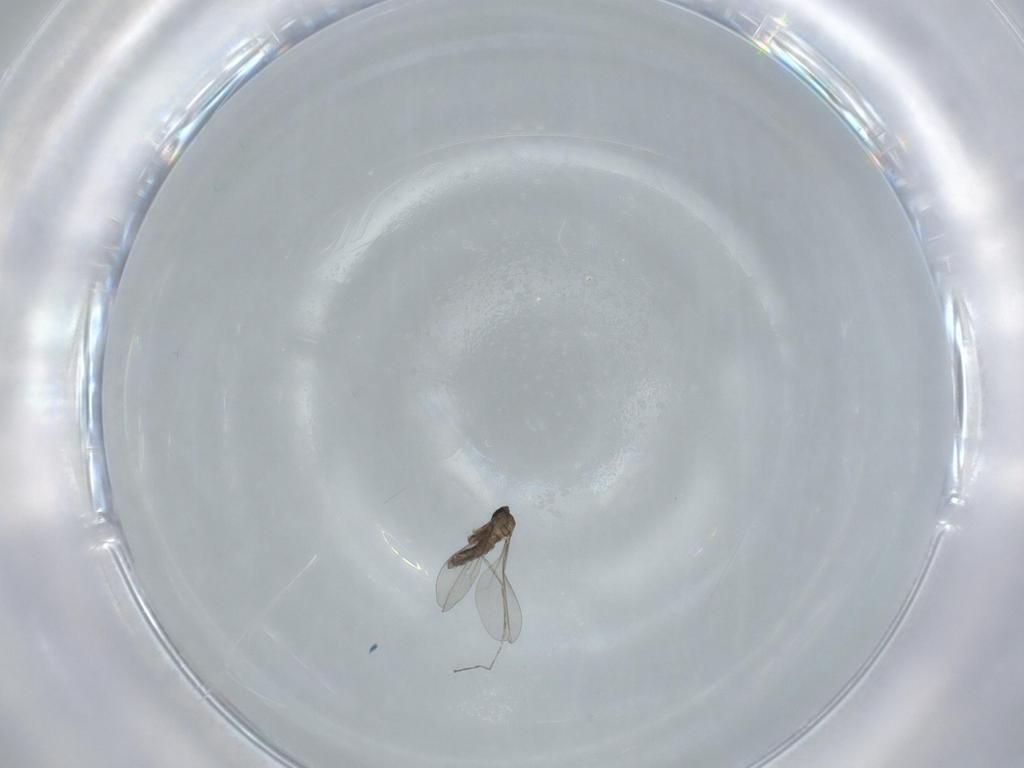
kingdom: Animalia
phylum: Arthropoda
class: Insecta
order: Diptera
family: Cecidomyiidae
